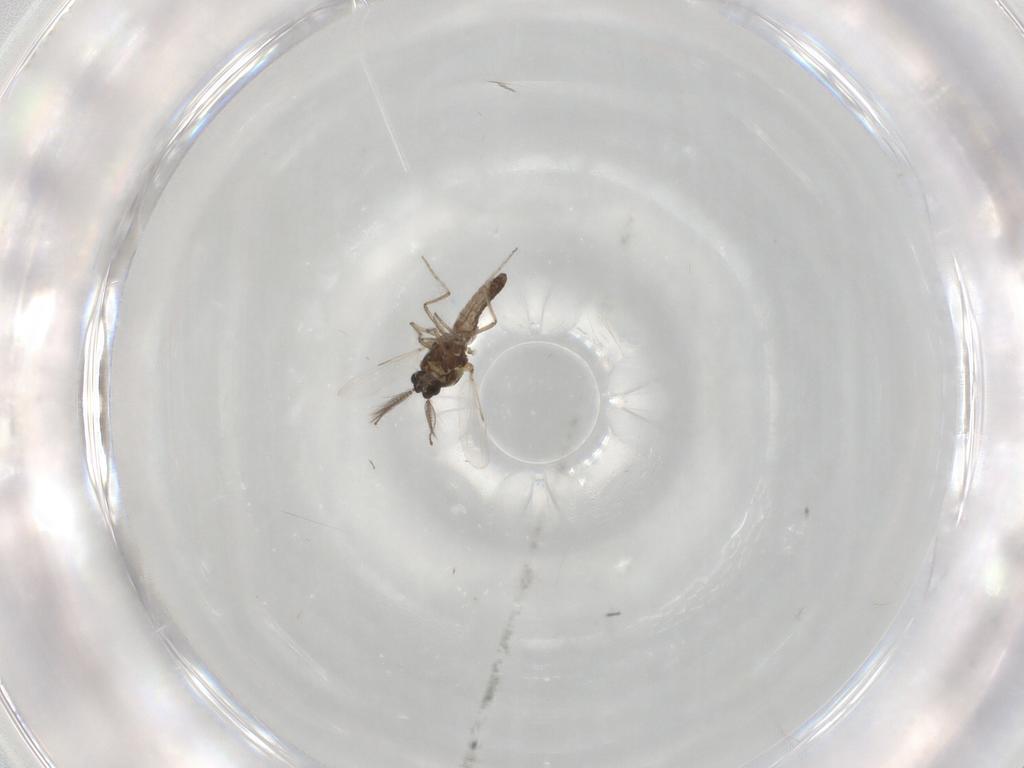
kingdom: Animalia
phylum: Arthropoda
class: Insecta
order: Diptera
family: Ceratopogonidae
